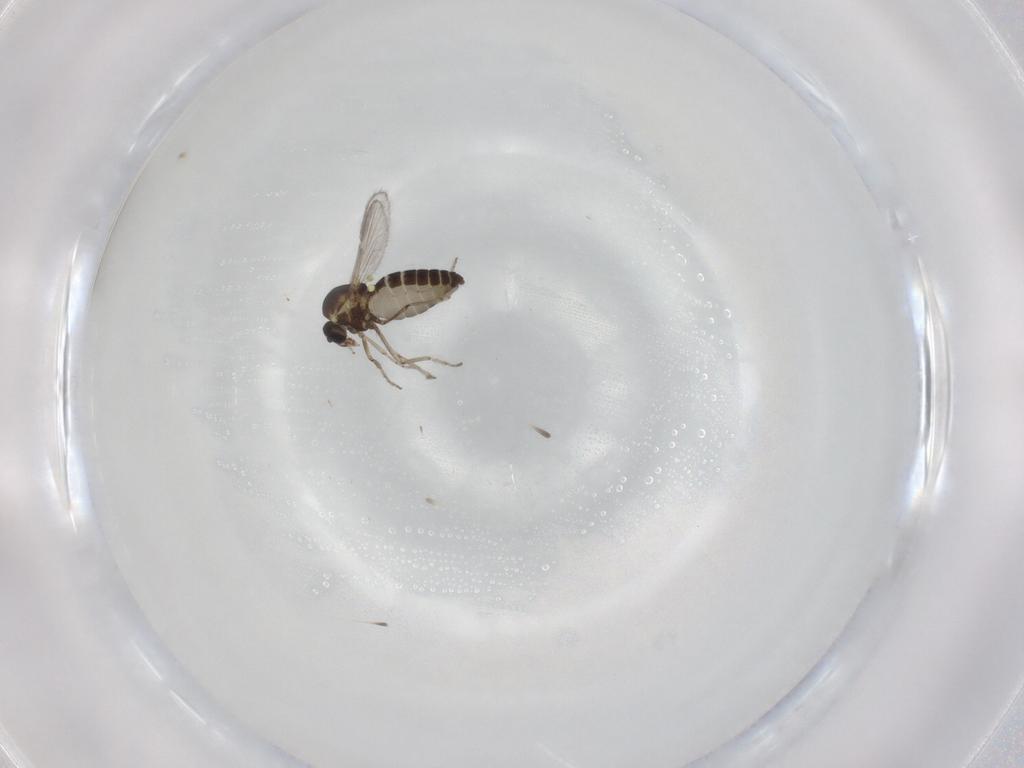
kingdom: Animalia
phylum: Arthropoda
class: Insecta
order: Diptera
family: Ceratopogonidae
